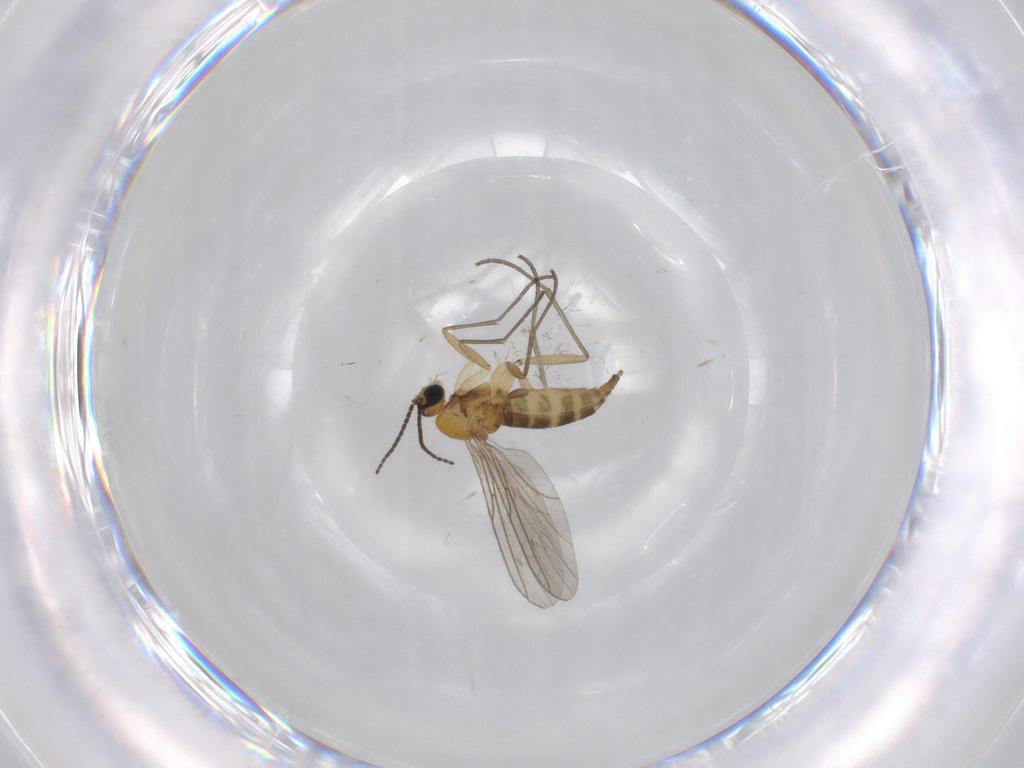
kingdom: Animalia
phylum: Arthropoda
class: Insecta
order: Diptera
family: Sciaridae
